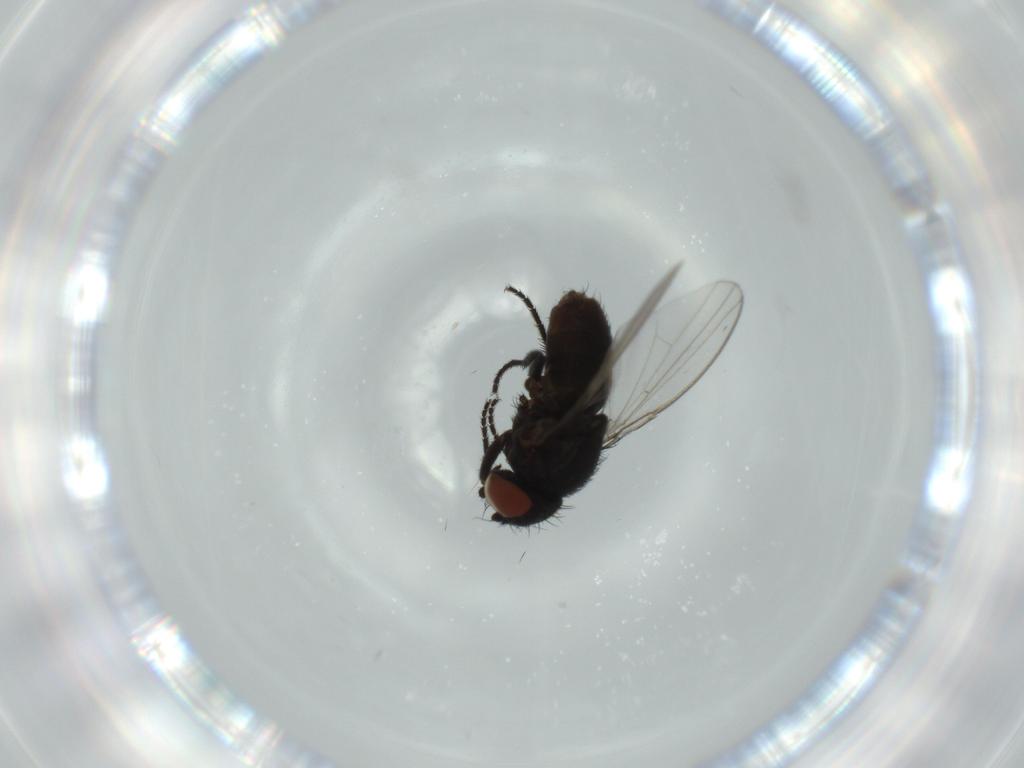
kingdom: Animalia
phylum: Arthropoda
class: Insecta
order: Diptera
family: Milichiidae
